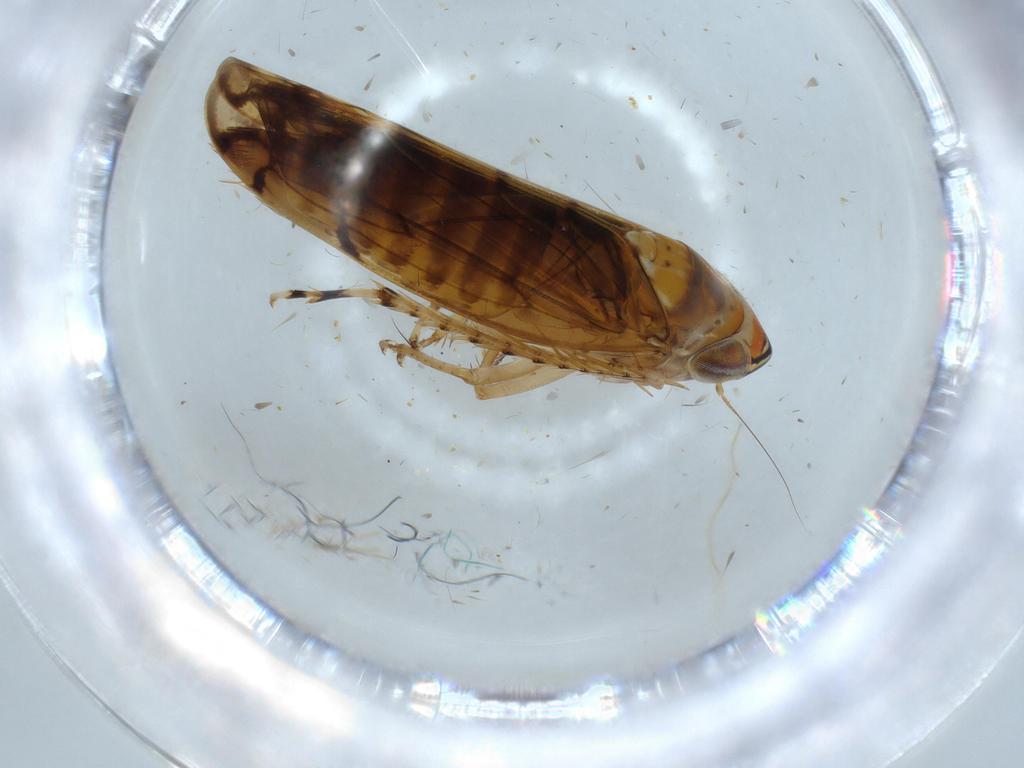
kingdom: Animalia
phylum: Arthropoda
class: Insecta
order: Hemiptera
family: Cicadellidae
